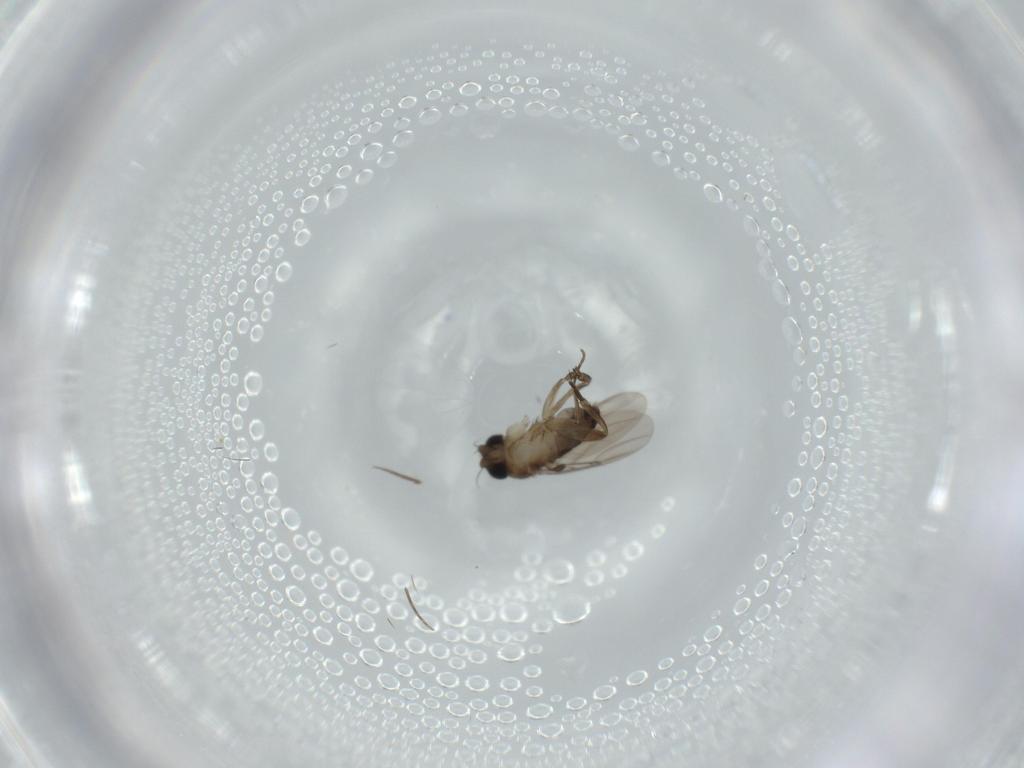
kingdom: Animalia
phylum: Arthropoda
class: Insecta
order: Diptera
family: Phoridae
